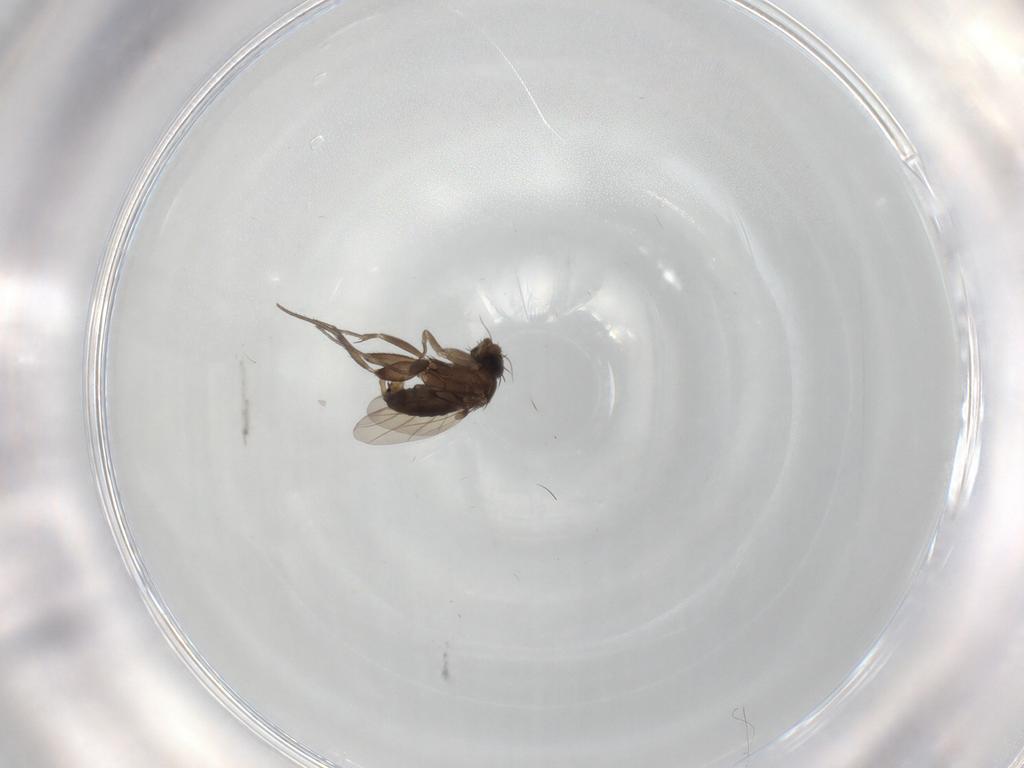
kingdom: Animalia
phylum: Arthropoda
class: Insecta
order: Diptera
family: Phoridae
